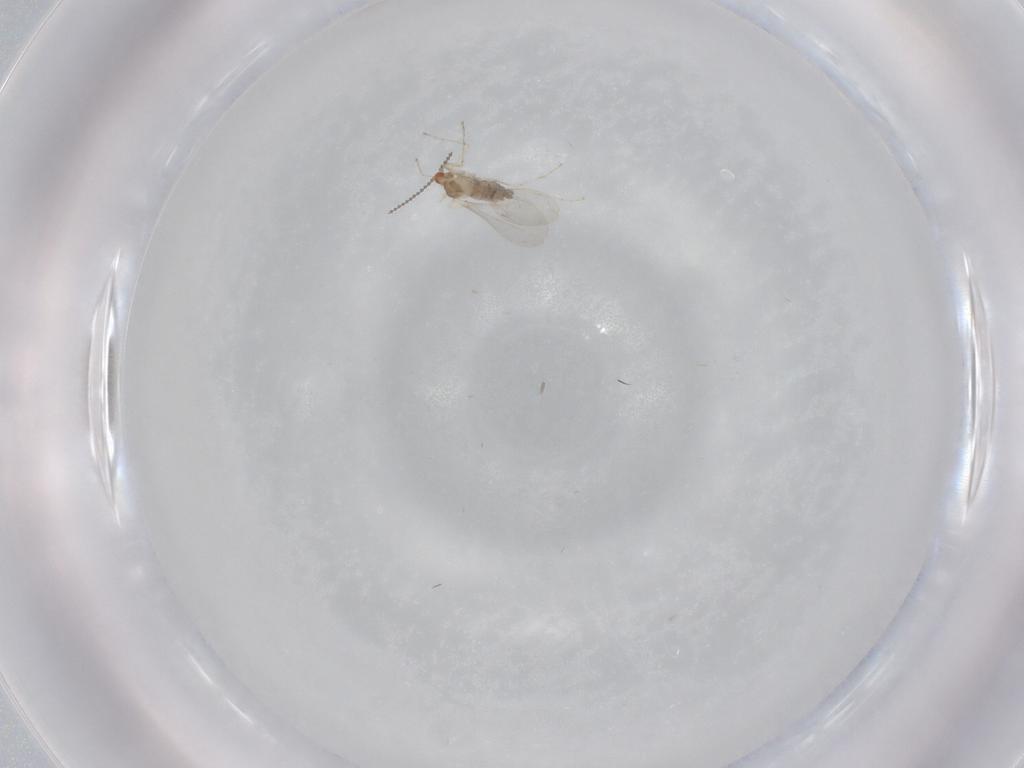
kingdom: Animalia
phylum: Arthropoda
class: Insecta
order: Diptera
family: Cecidomyiidae
